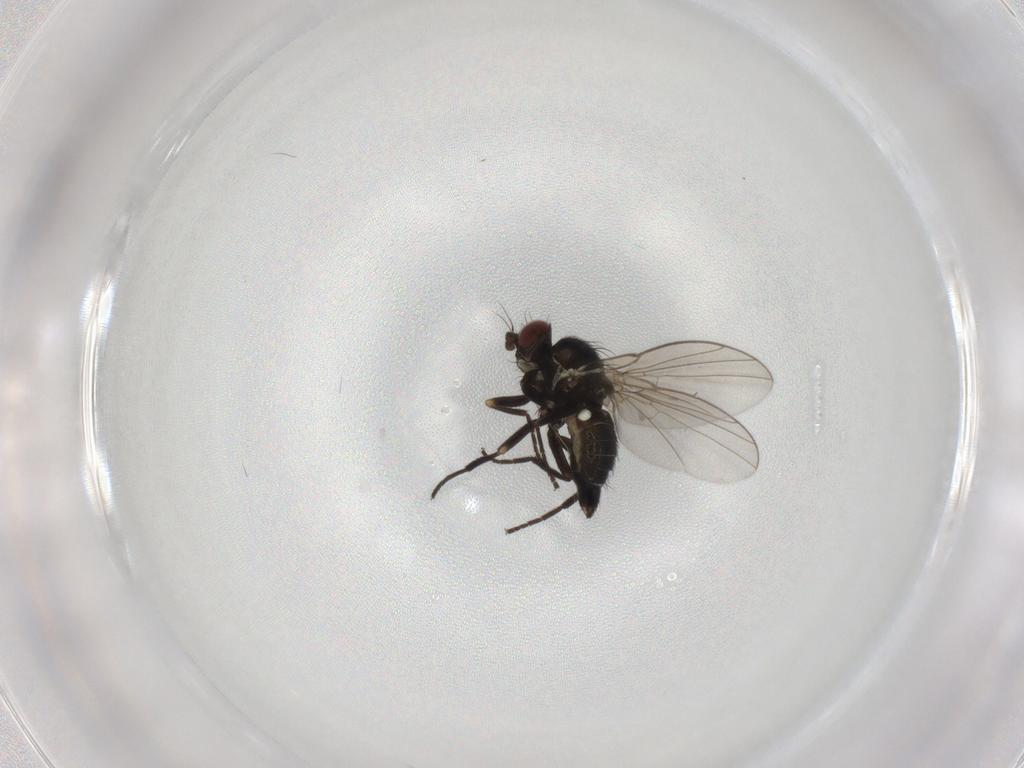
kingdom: Animalia
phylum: Arthropoda
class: Insecta
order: Diptera
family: Agromyzidae
